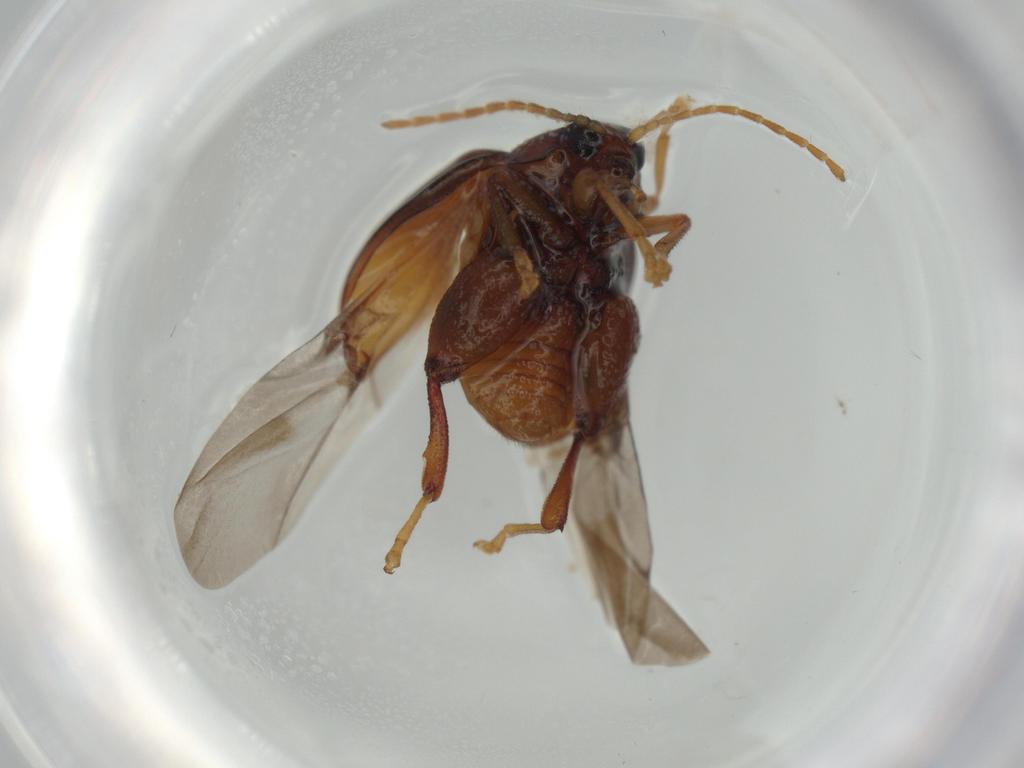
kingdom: Animalia
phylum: Arthropoda
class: Insecta
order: Coleoptera
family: Chrysomelidae
